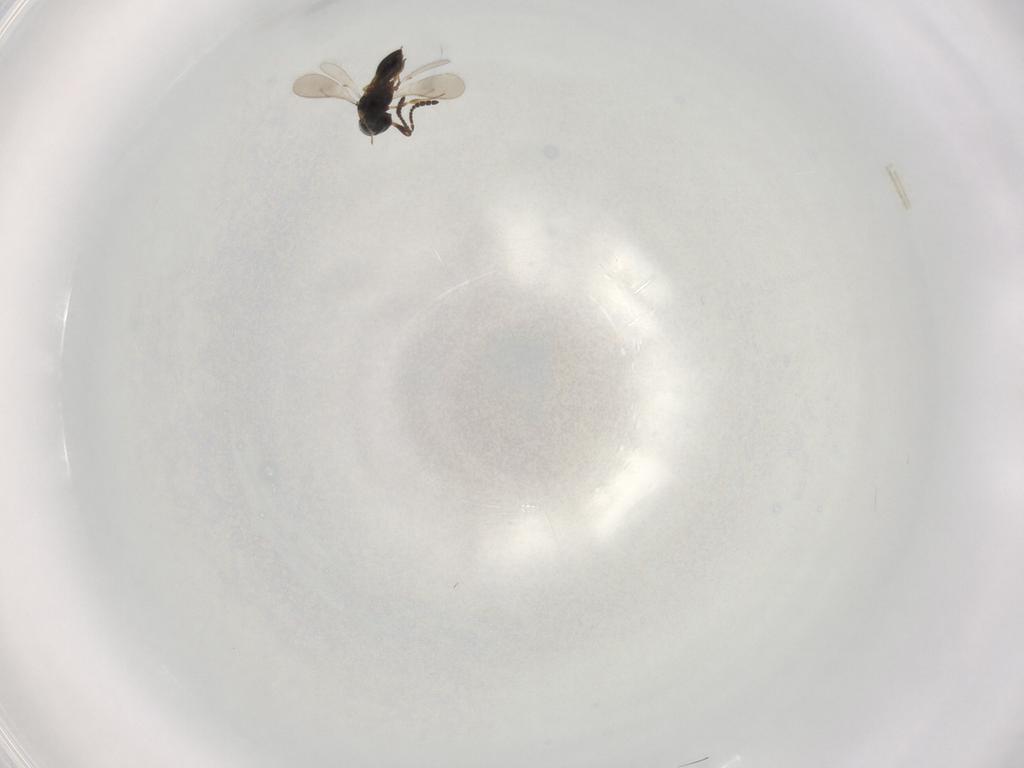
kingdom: Animalia
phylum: Arthropoda
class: Insecta
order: Hymenoptera
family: Scelionidae
